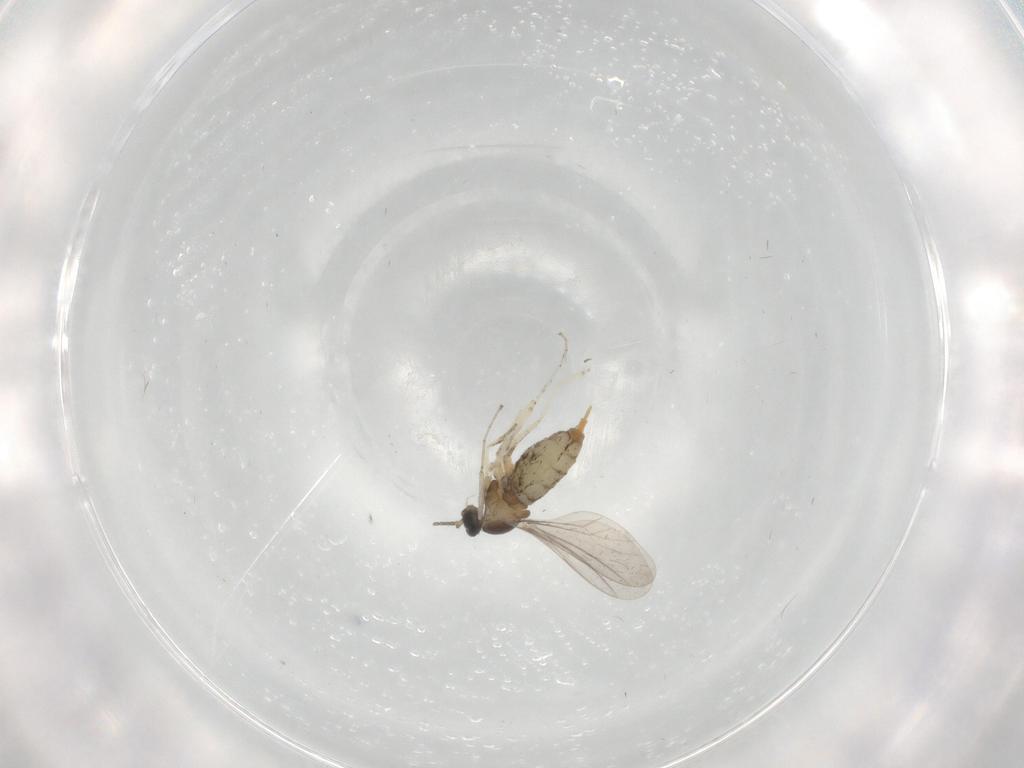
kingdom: Animalia
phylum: Arthropoda
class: Insecta
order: Diptera
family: Cecidomyiidae
